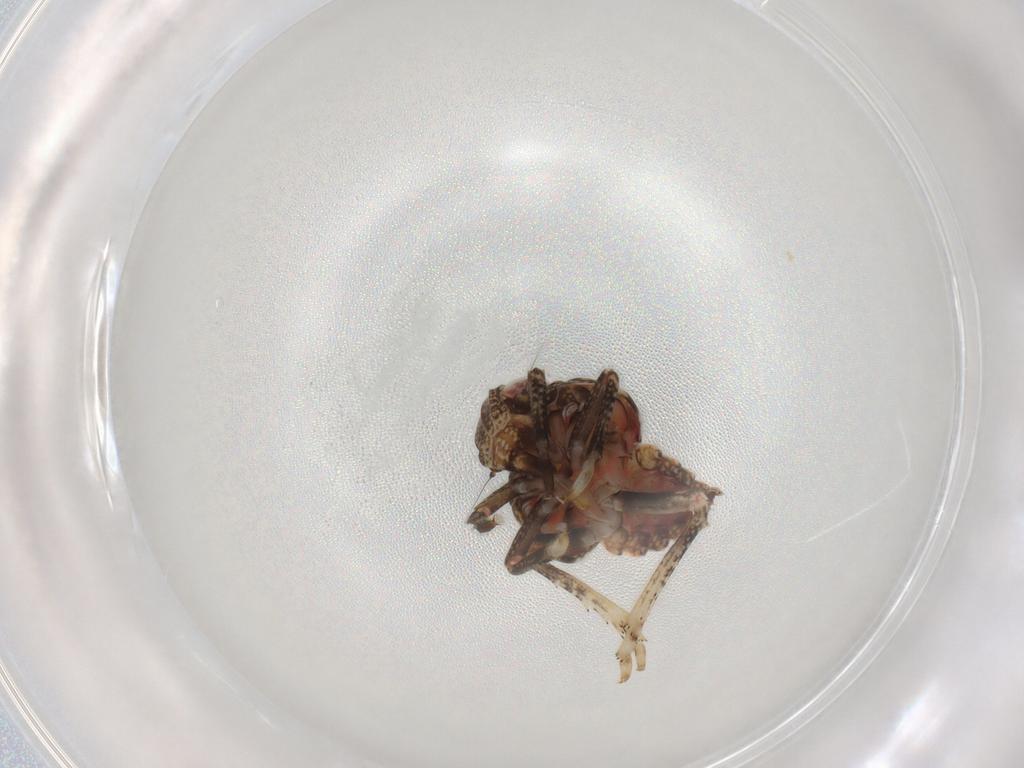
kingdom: Animalia
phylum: Arthropoda
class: Insecta
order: Hemiptera
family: Tropiduchidae
